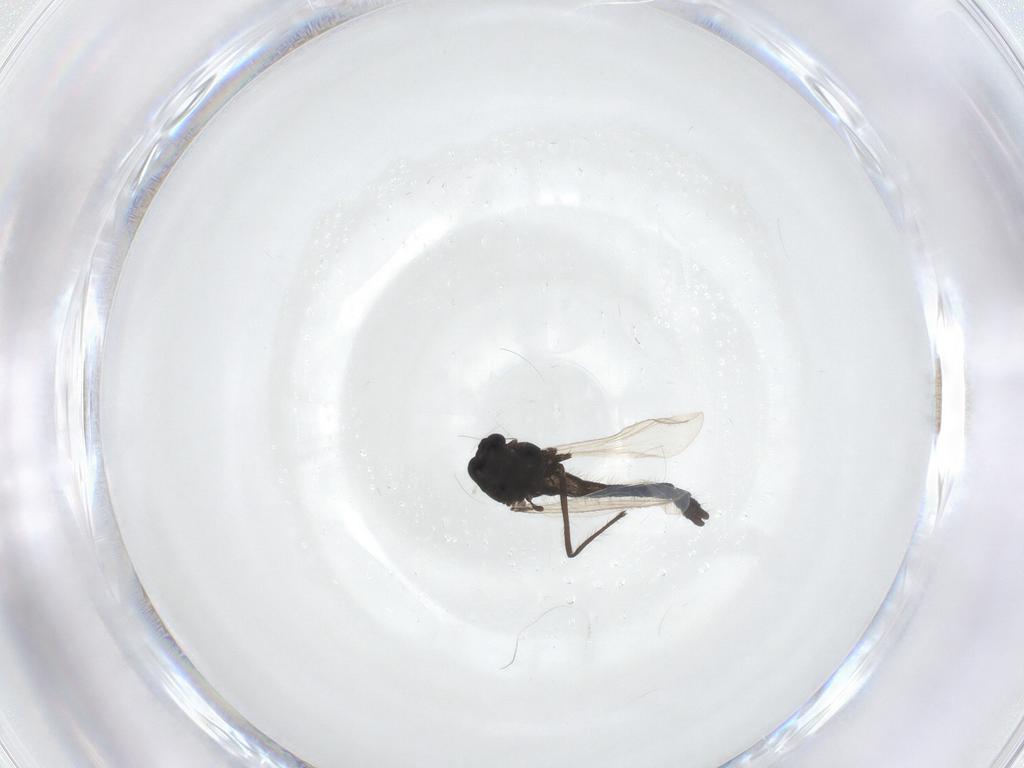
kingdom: Animalia
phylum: Arthropoda
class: Insecta
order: Diptera
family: Chironomidae
